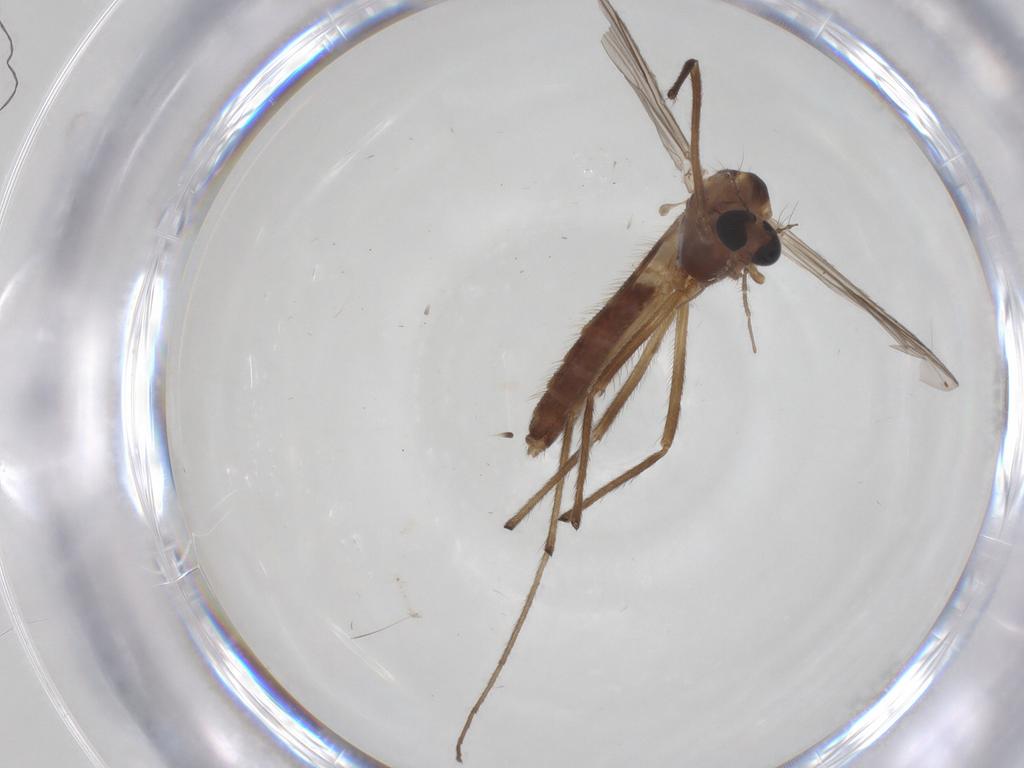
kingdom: Animalia
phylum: Arthropoda
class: Insecta
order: Diptera
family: Chironomidae
